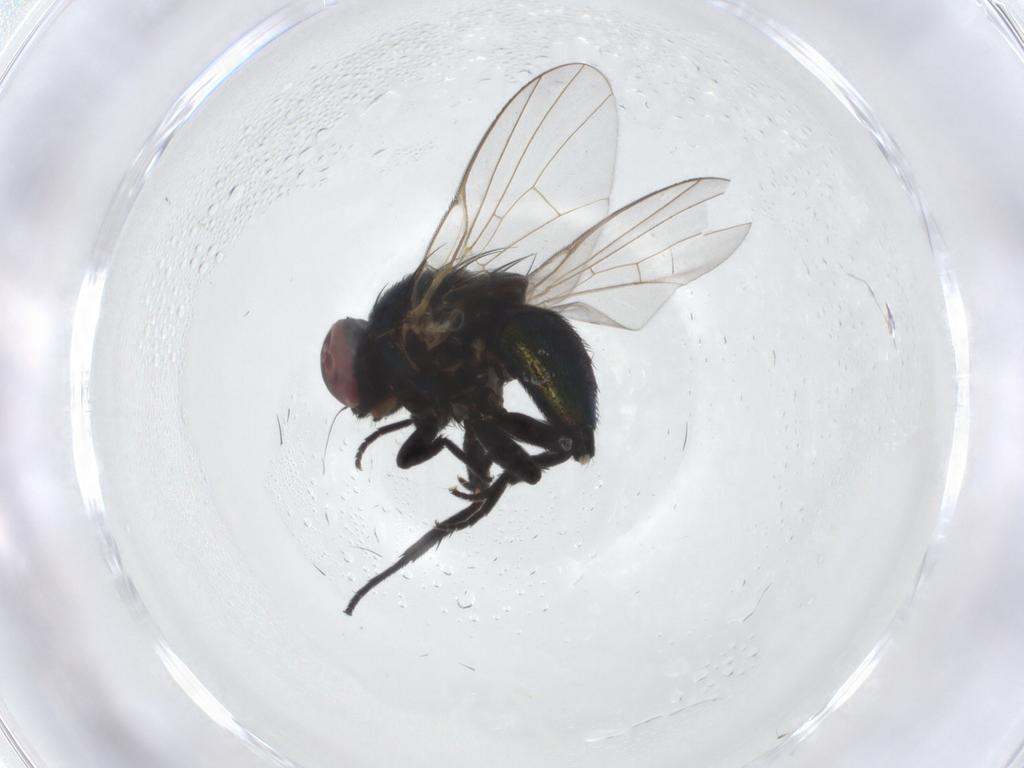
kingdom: Animalia
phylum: Arthropoda
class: Insecta
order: Diptera
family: Agromyzidae
